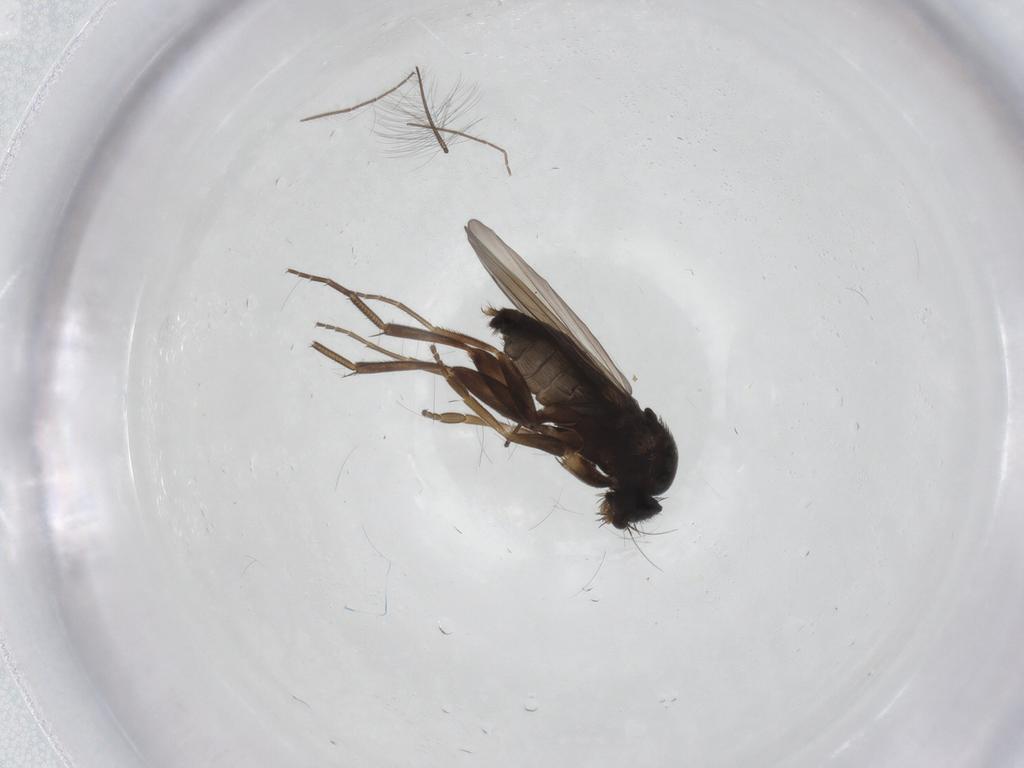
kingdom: Animalia
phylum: Arthropoda
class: Insecta
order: Diptera
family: Phoridae
